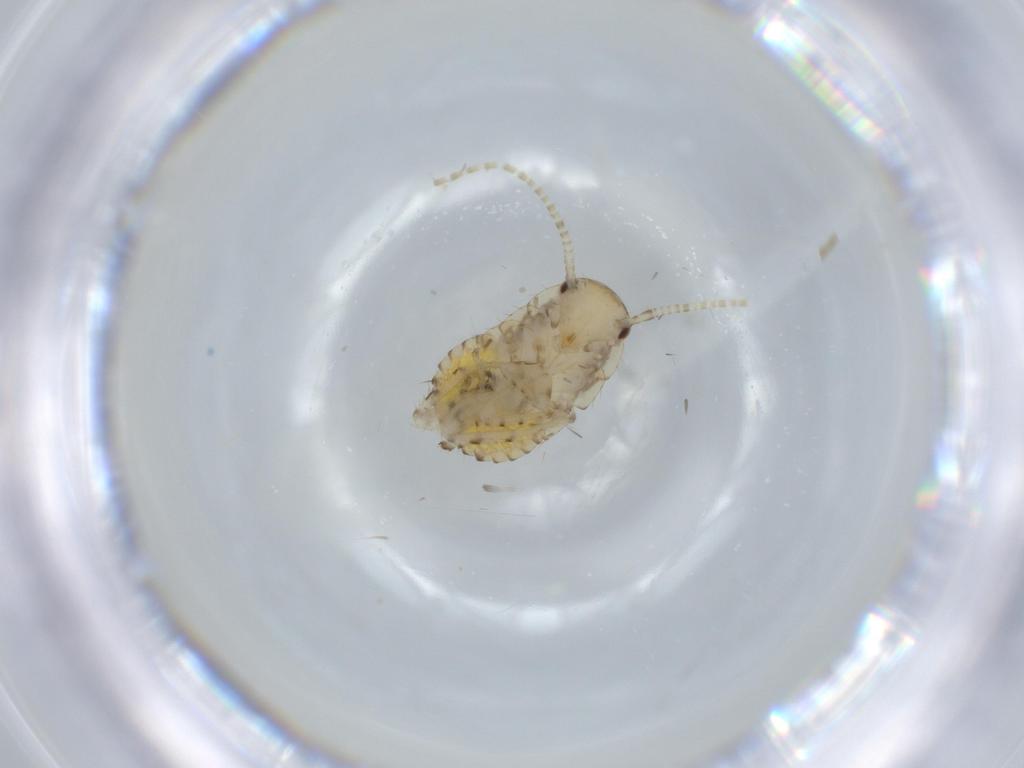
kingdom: Animalia
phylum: Arthropoda
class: Insecta
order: Blattodea
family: Ectobiidae
